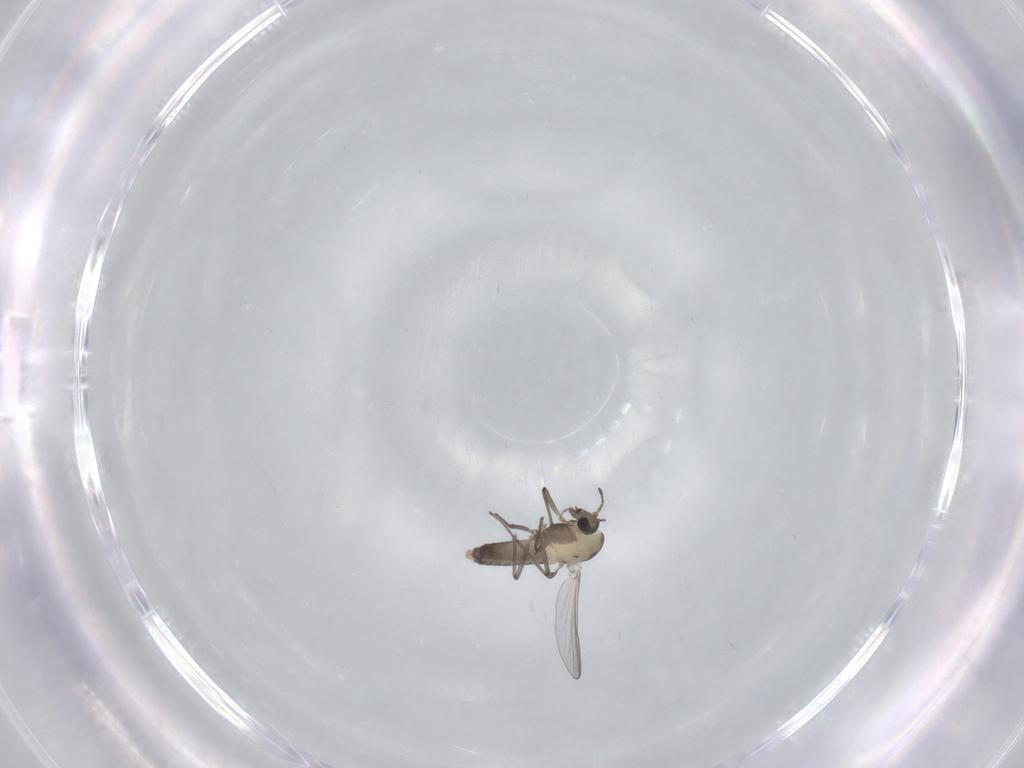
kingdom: Animalia
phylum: Arthropoda
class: Insecta
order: Diptera
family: Chironomidae
